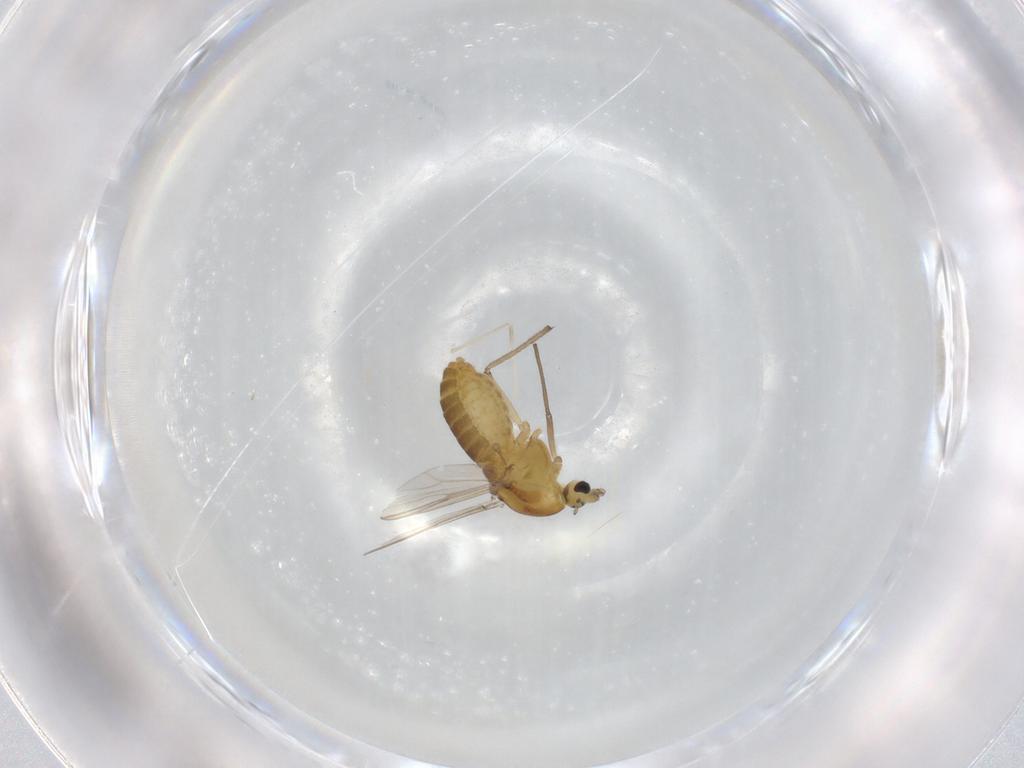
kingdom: Animalia
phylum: Arthropoda
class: Insecta
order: Diptera
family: Chironomidae
